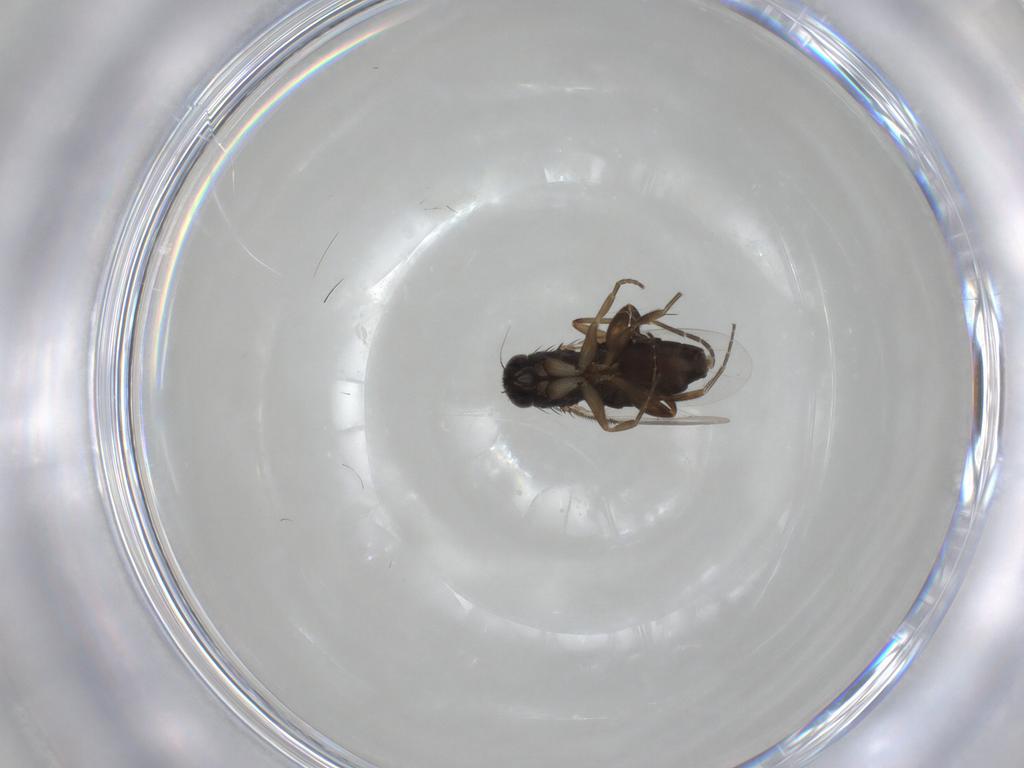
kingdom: Animalia
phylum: Arthropoda
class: Insecta
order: Diptera
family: Phoridae
